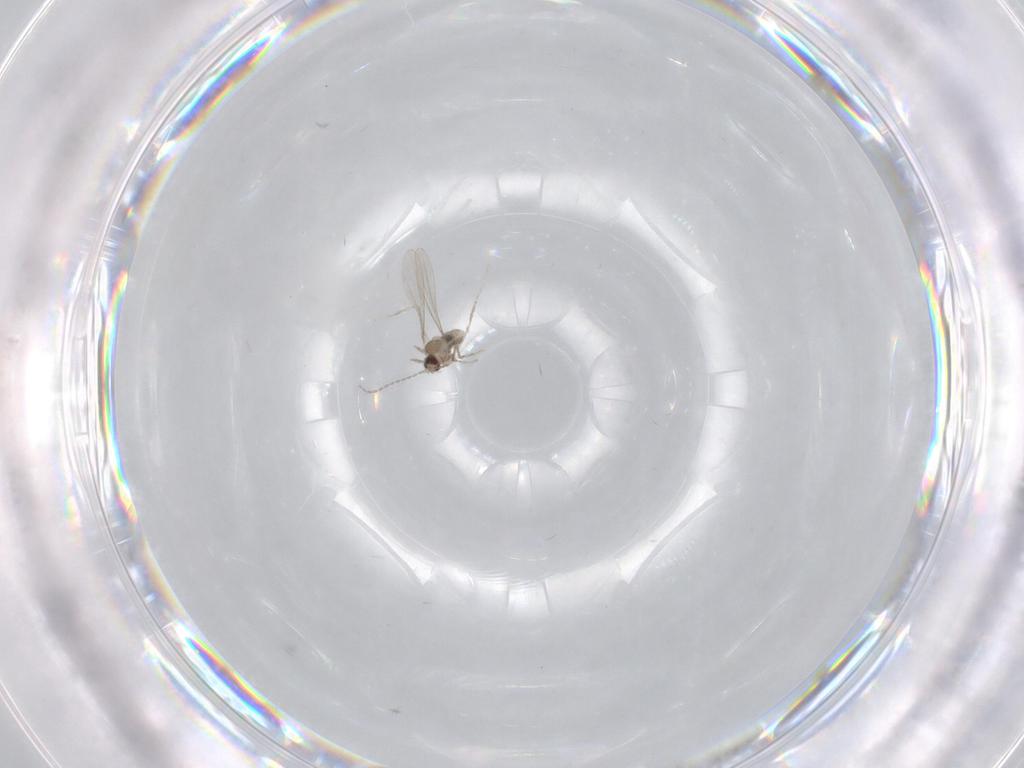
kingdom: Animalia
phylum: Arthropoda
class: Insecta
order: Diptera
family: Cecidomyiidae
